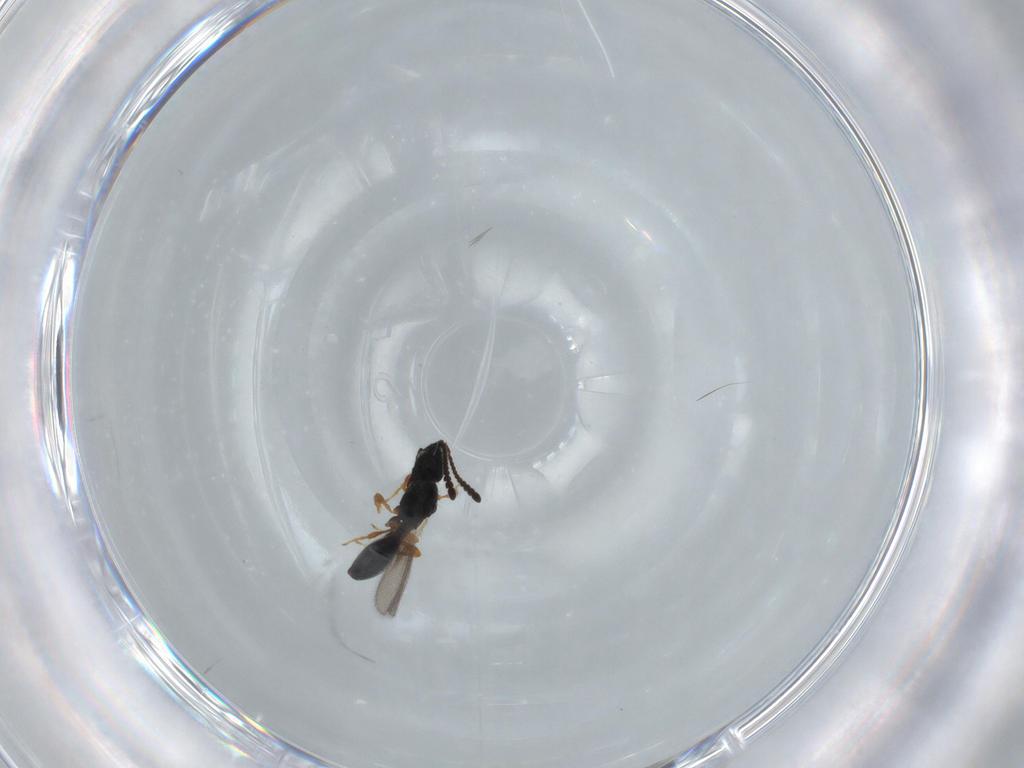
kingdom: Animalia
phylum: Arthropoda
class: Insecta
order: Hymenoptera
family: Diapriidae
